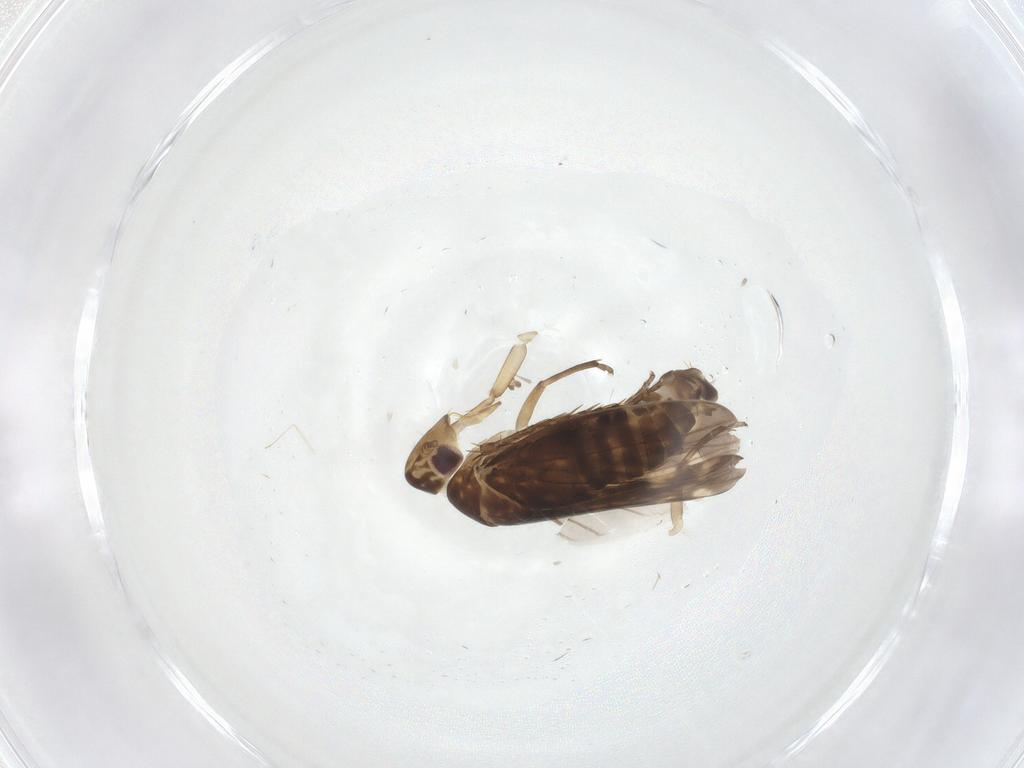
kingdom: Animalia
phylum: Arthropoda
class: Insecta
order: Hemiptera
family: Cicadellidae
